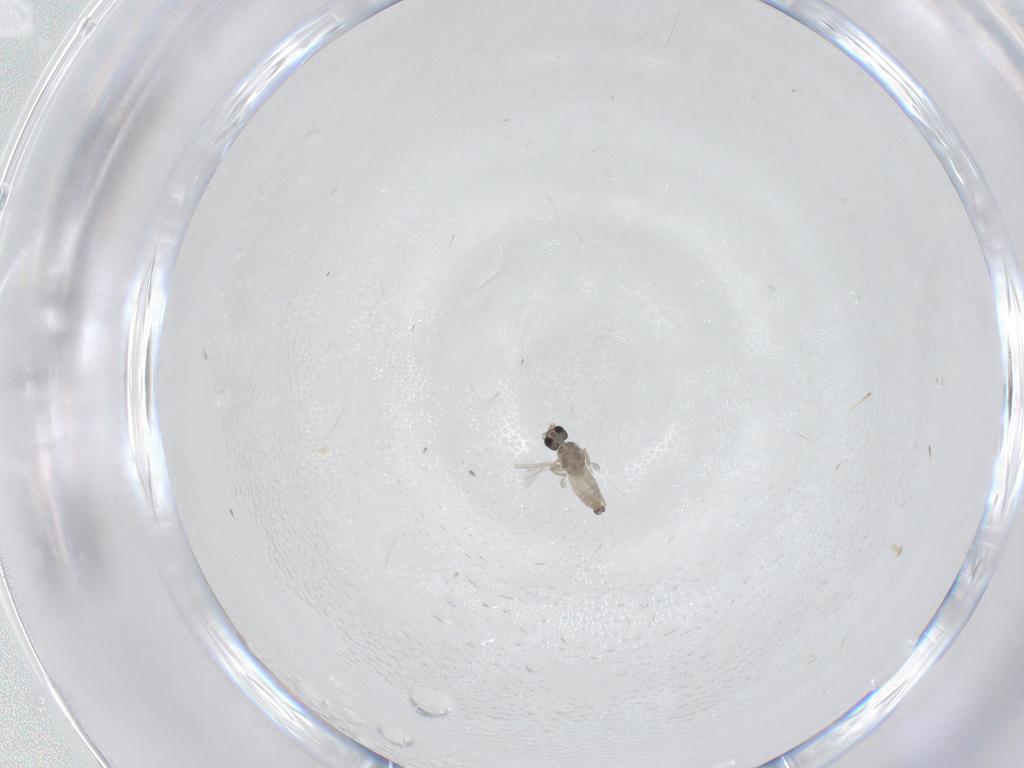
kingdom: Animalia
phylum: Arthropoda
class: Insecta
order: Diptera
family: Cecidomyiidae
